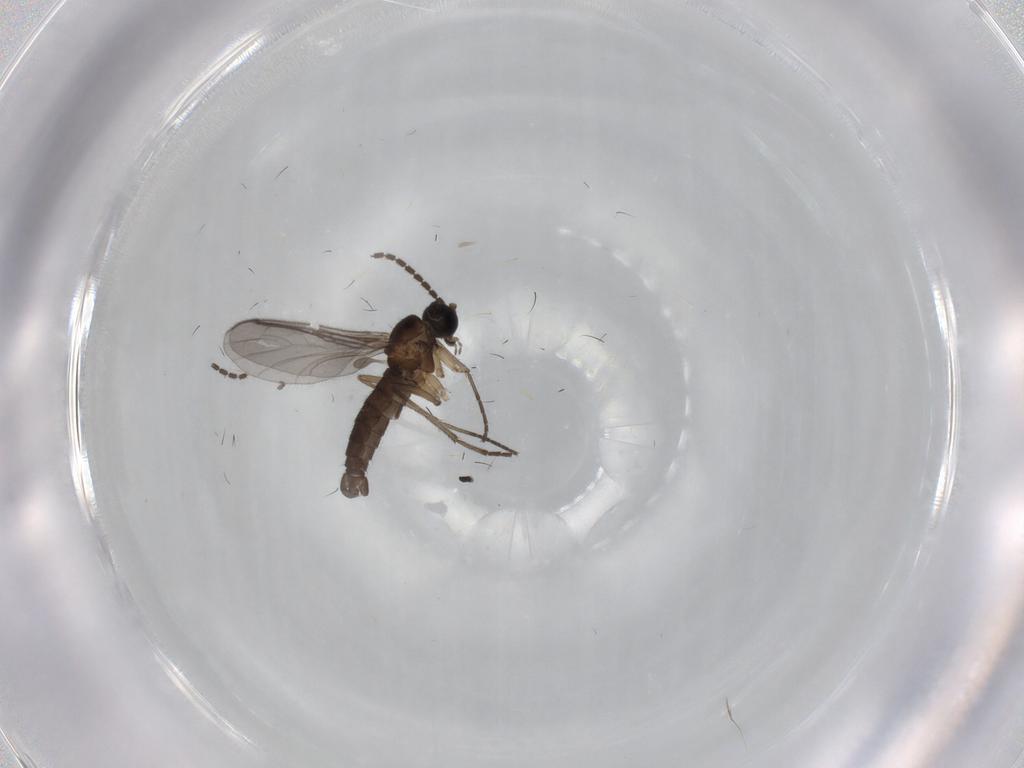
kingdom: Animalia
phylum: Arthropoda
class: Insecta
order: Diptera
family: Sciaridae
